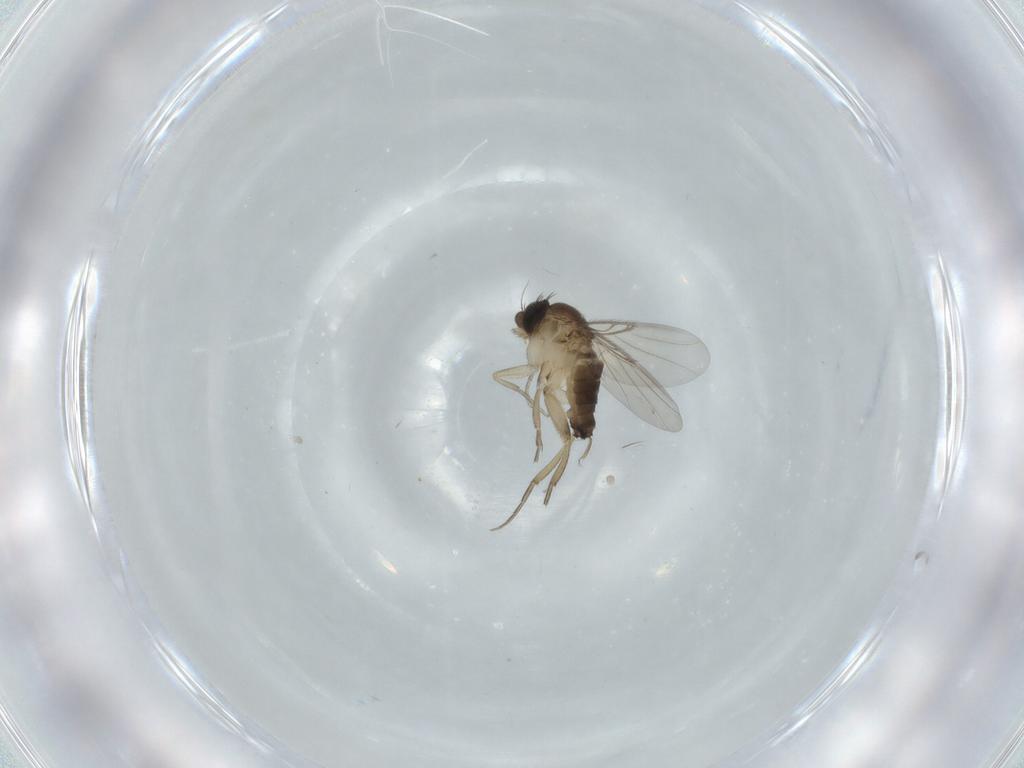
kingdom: Animalia
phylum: Arthropoda
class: Insecta
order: Diptera
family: Phoridae
